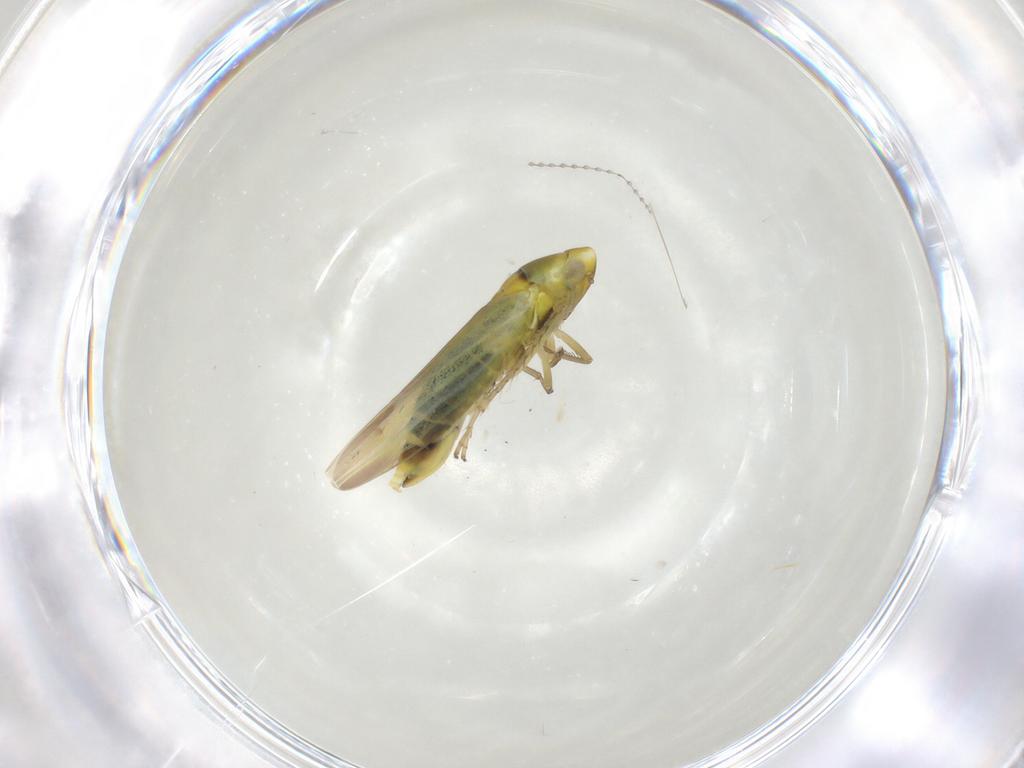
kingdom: Animalia
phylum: Arthropoda
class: Insecta
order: Hemiptera
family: Cicadellidae
